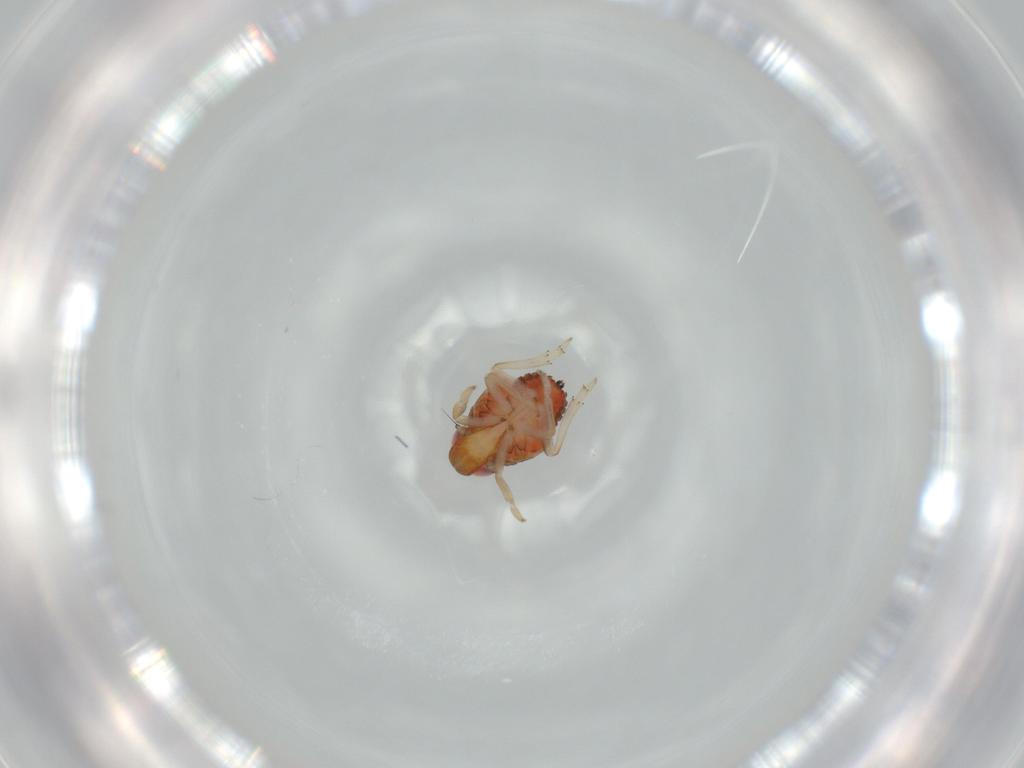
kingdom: Animalia
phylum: Arthropoda
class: Insecta
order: Hemiptera
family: Issidae
